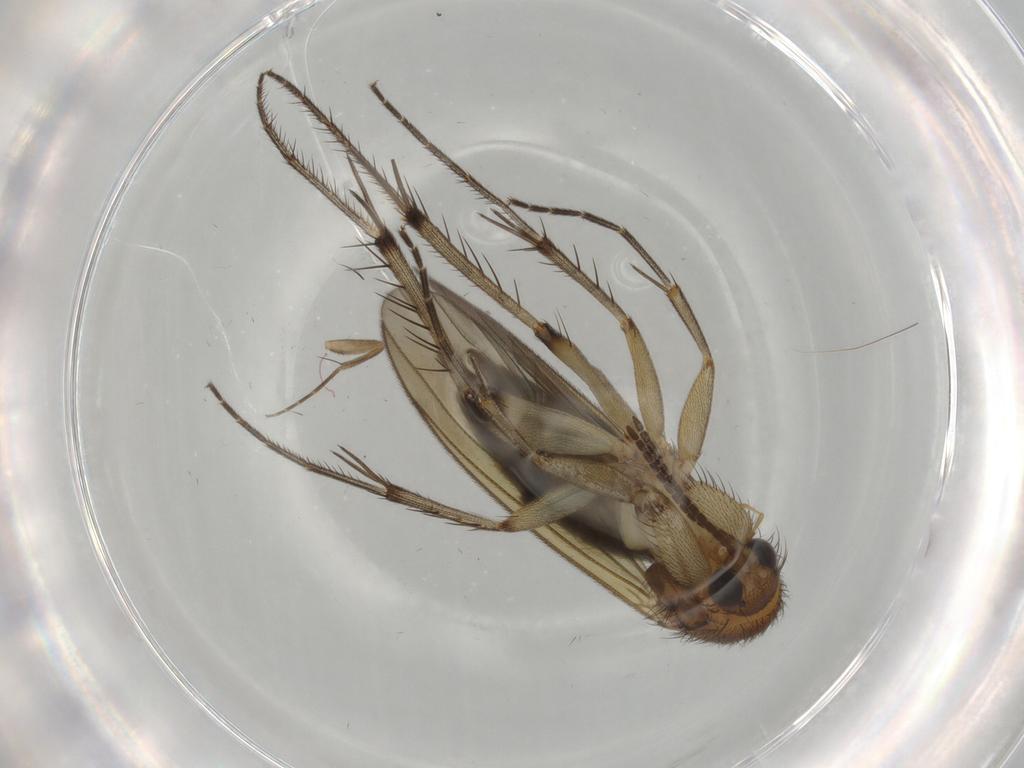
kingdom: Animalia
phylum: Arthropoda
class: Insecta
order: Diptera
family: Mycetophilidae
